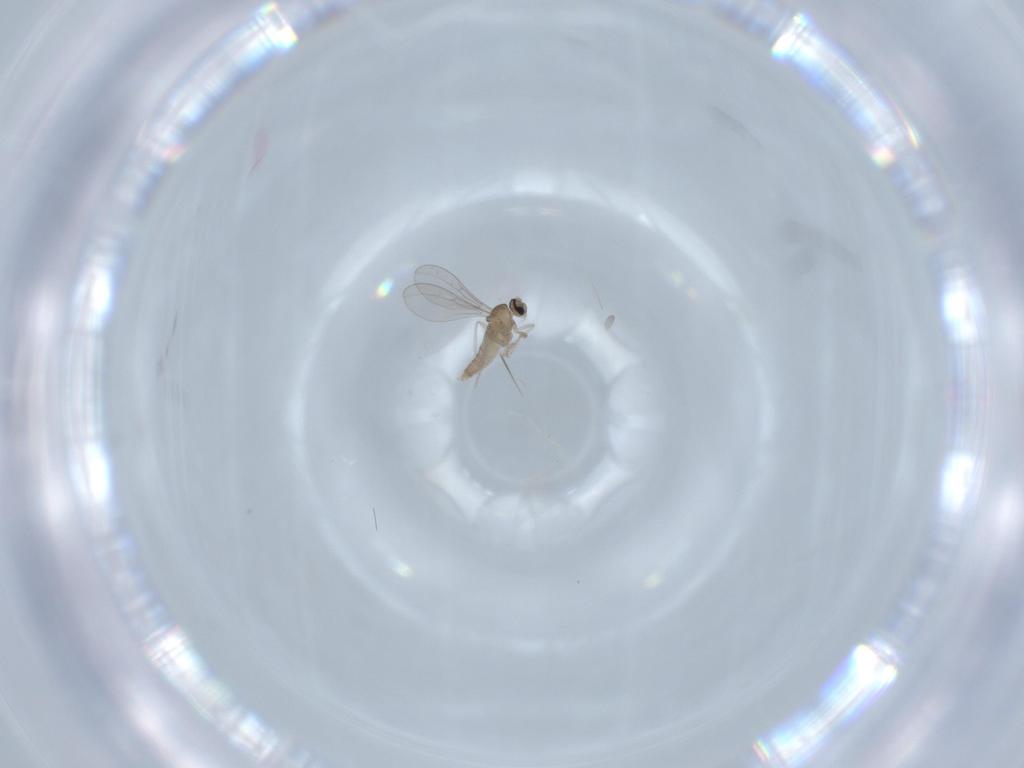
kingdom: Animalia
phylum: Arthropoda
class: Insecta
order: Diptera
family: Cecidomyiidae
